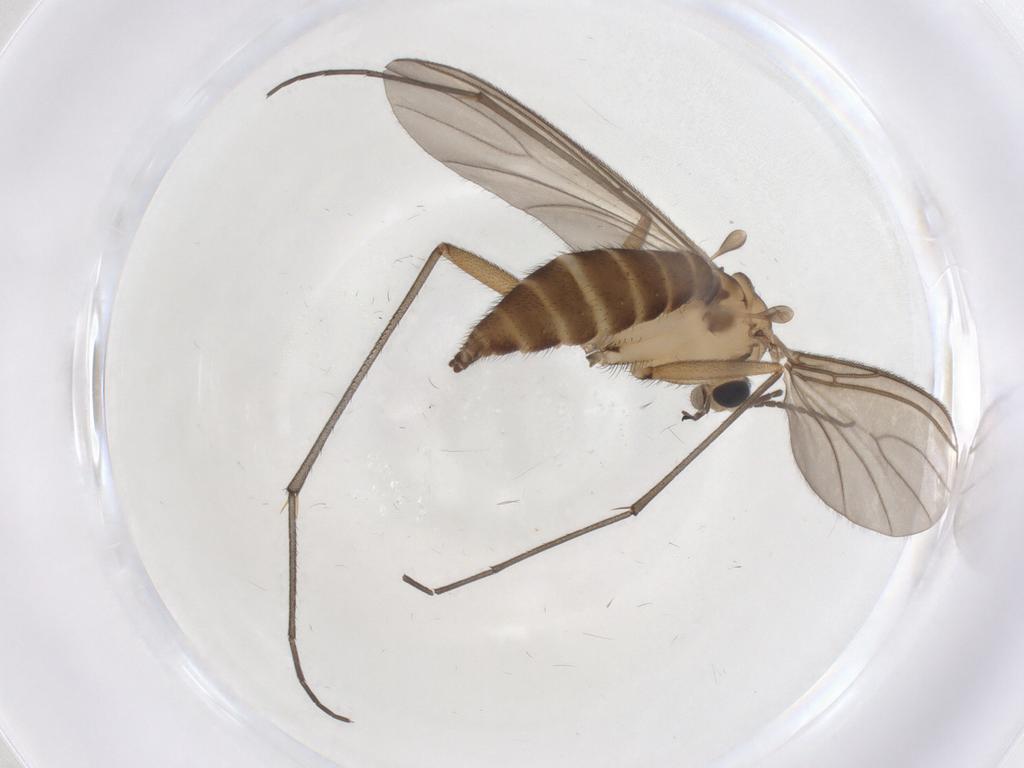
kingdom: Animalia
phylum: Arthropoda
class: Insecta
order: Diptera
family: Sciaridae
